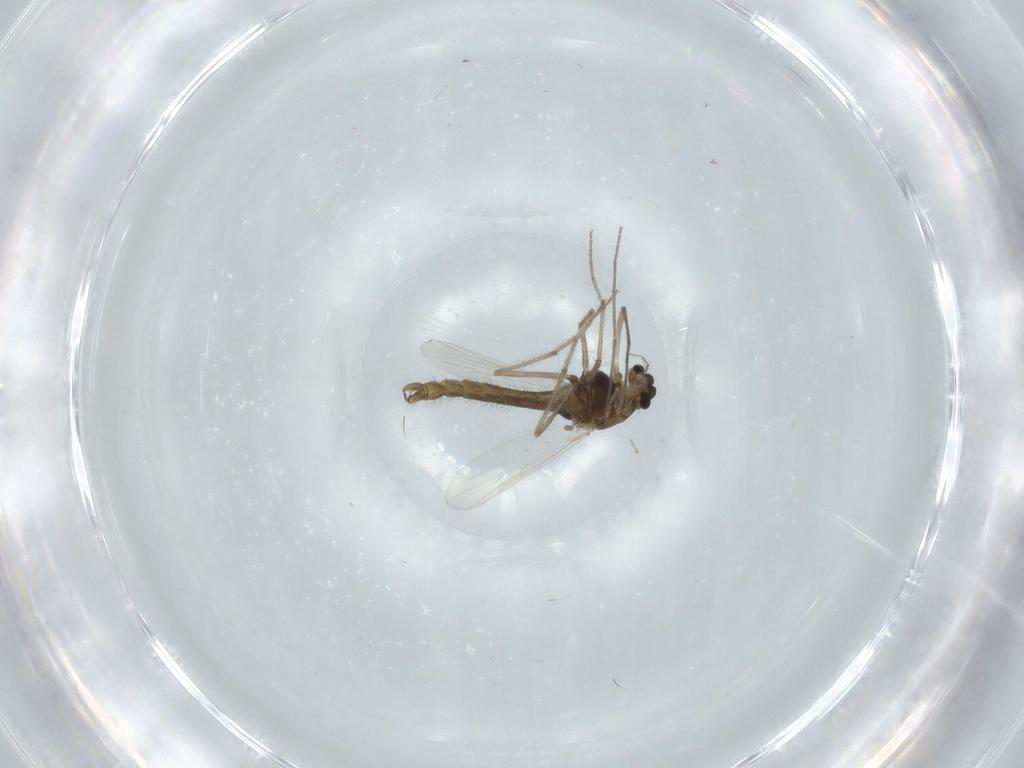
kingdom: Animalia
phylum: Arthropoda
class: Insecta
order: Diptera
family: Chironomidae
